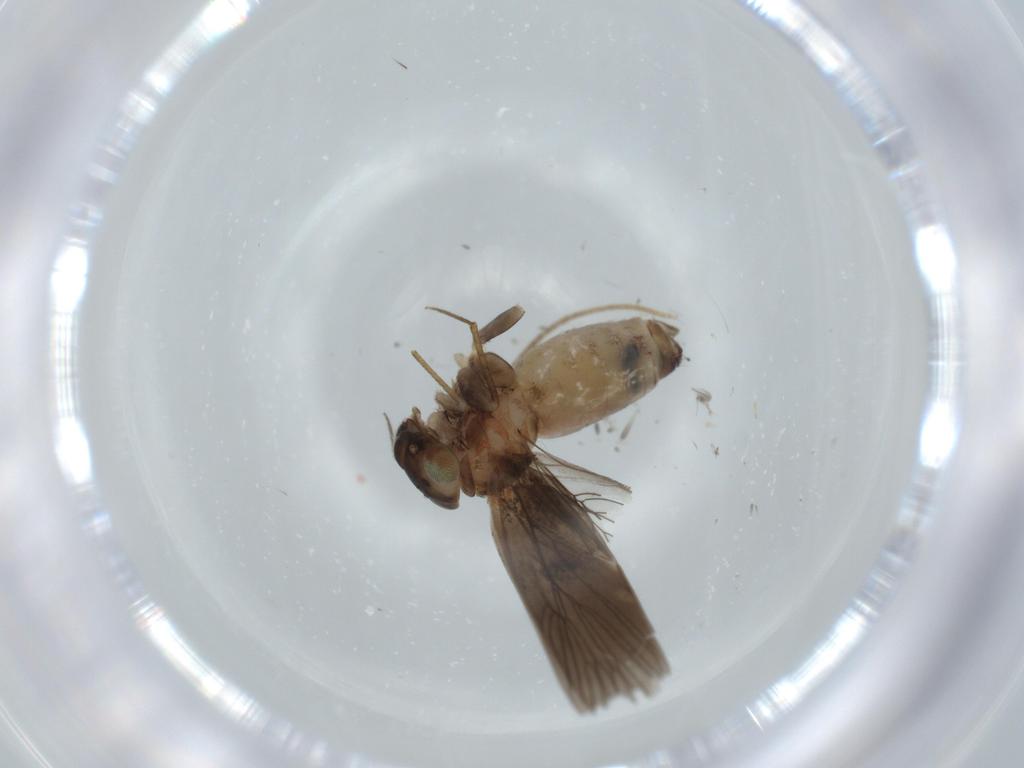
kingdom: Animalia
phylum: Arthropoda
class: Insecta
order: Psocodea
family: Lepidopsocidae
